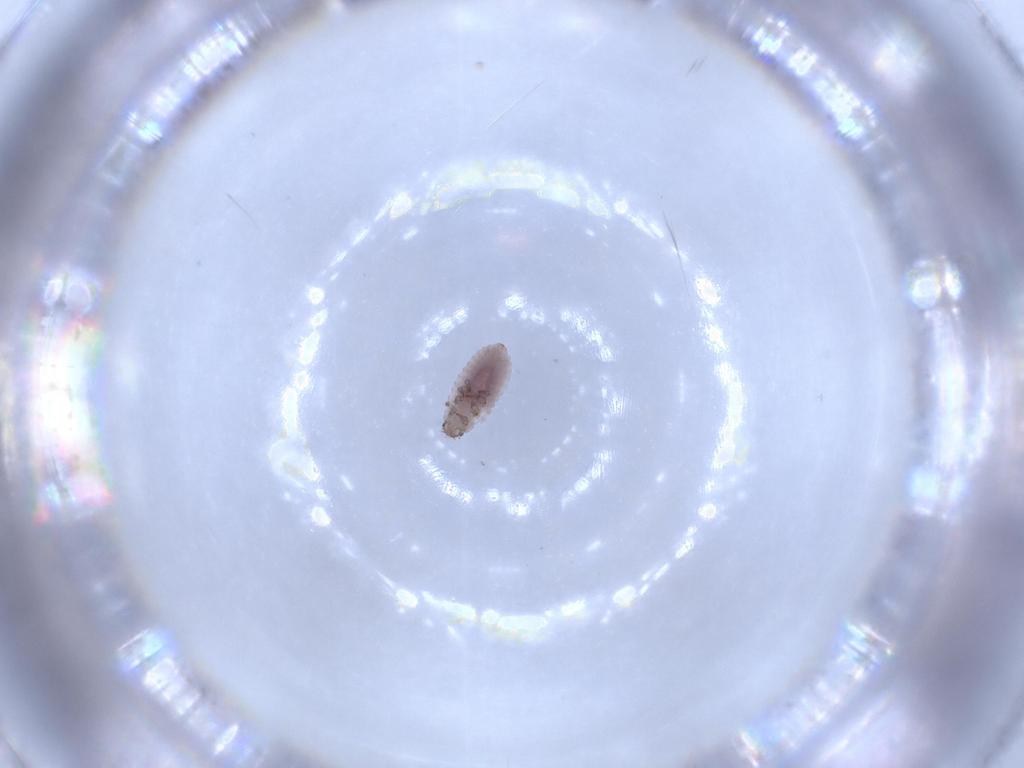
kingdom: Animalia
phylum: Arthropoda
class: Insecta
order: Coleoptera
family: Coccinellidae
